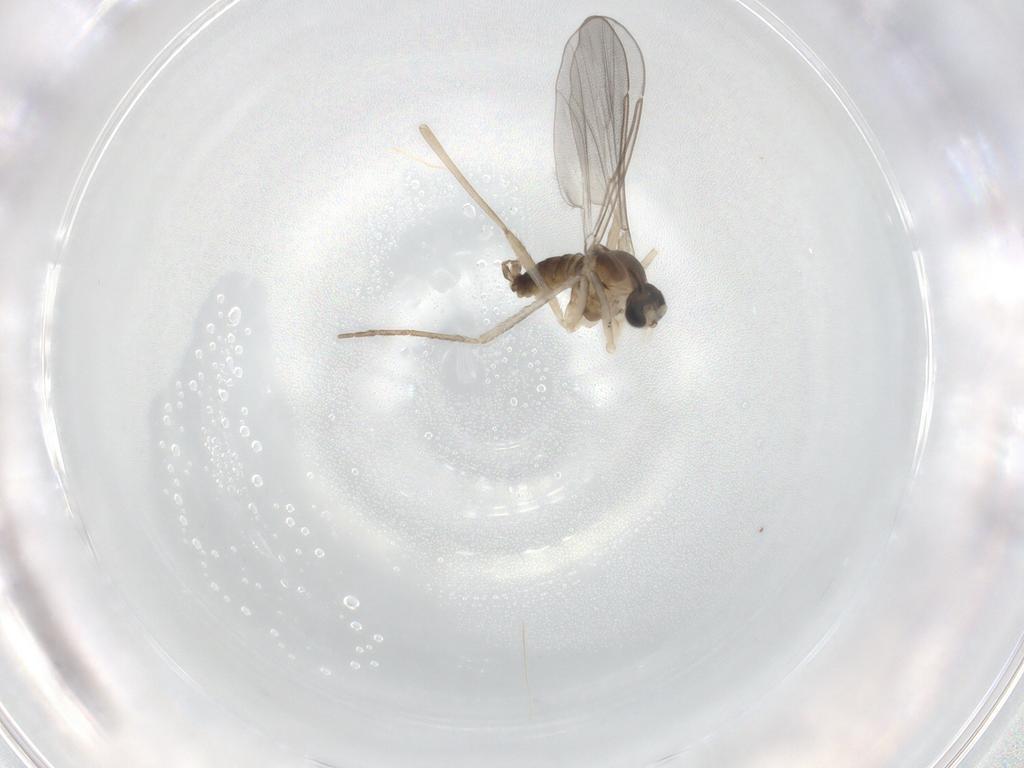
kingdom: Animalia
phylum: Arthropoda
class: Insecta
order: Diptera
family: Cecidomyiidae
